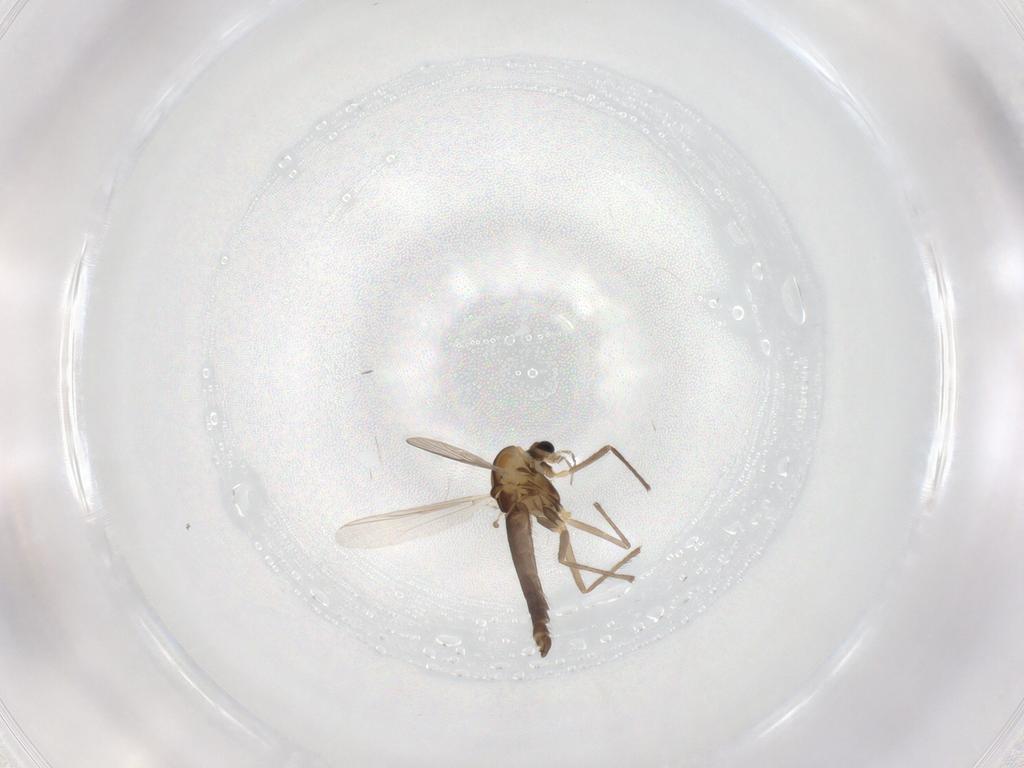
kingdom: Animalia
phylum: Arthropoda
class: Insecta
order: Diptera
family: Chironomidae
